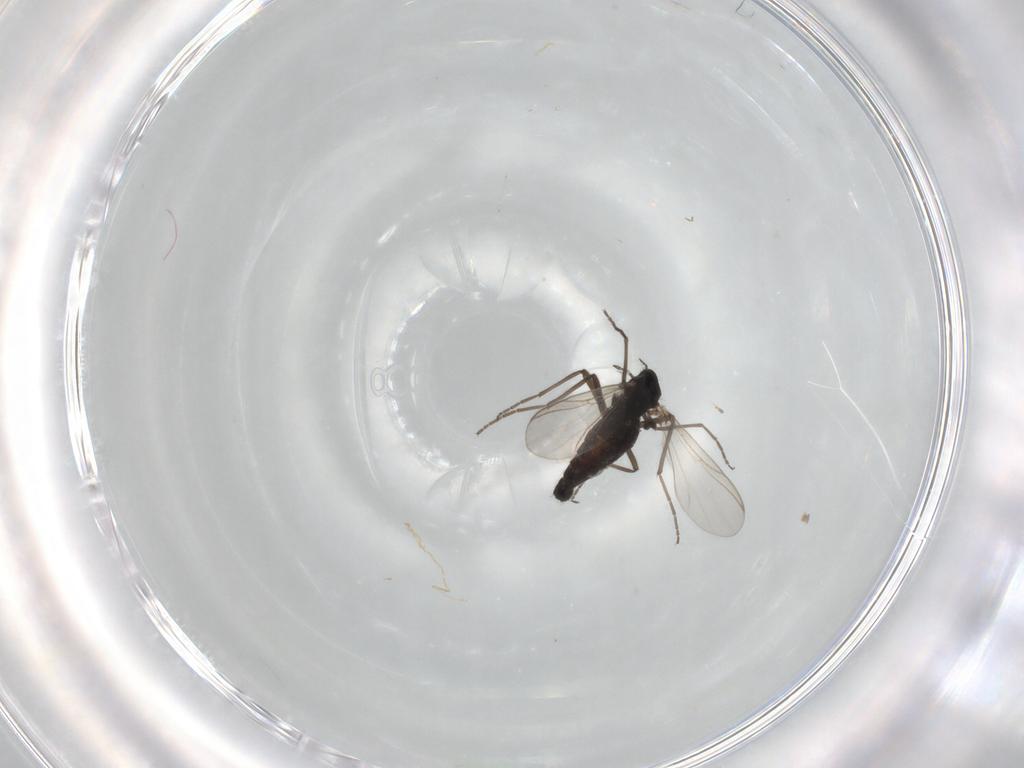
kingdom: Animalia
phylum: Arthropoda
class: Insecta
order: Diptera
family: Chironomidae
